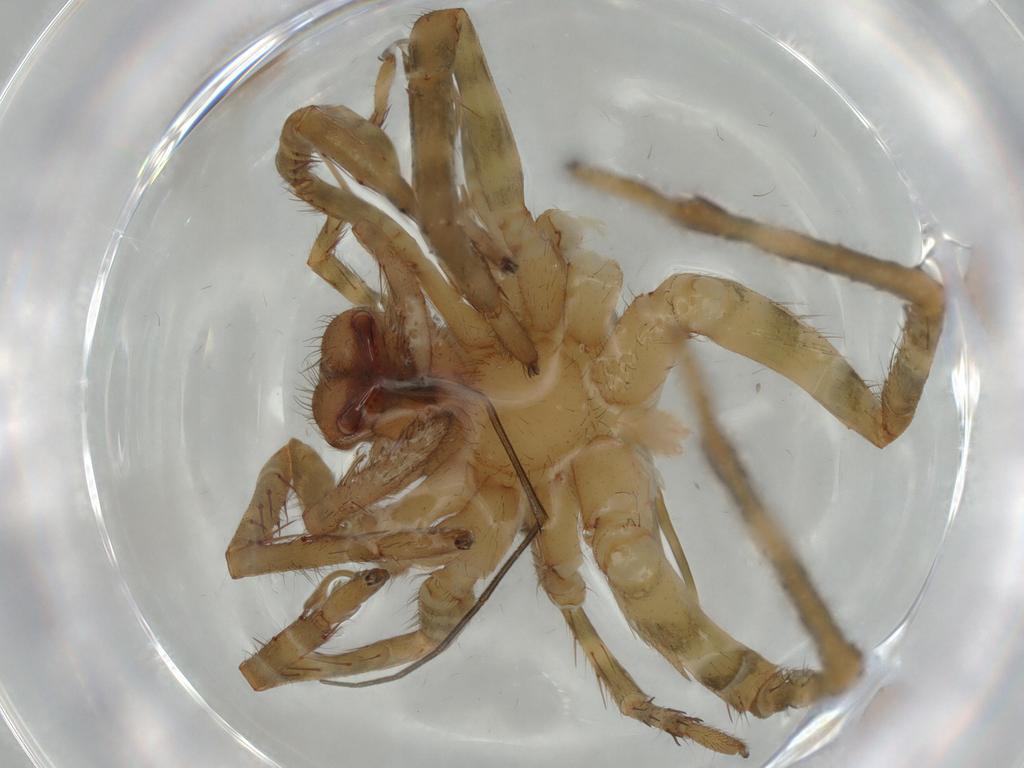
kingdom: Animalia
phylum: Arthropoda
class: Arachnida
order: Araneae
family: Ctenidae
